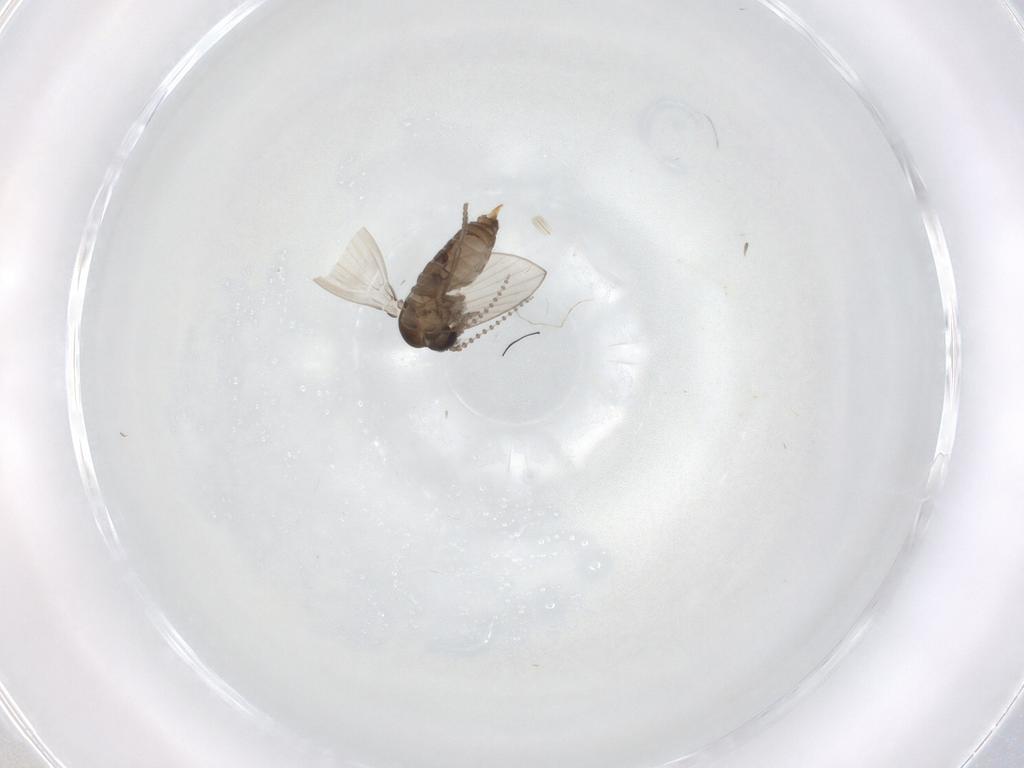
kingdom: Animalia
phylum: Arthropoda
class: Insecta
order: Diptera
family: Psychodidae
